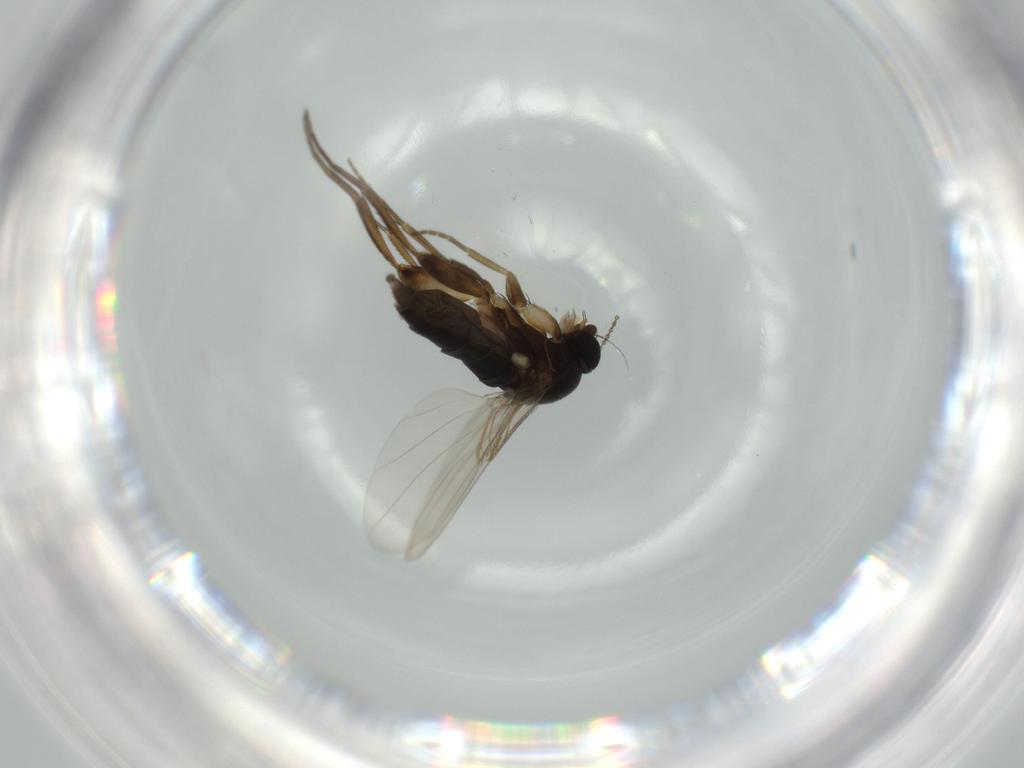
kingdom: Animalia
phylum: Arthropoda
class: Insecta
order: Diptera
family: Phoridae
